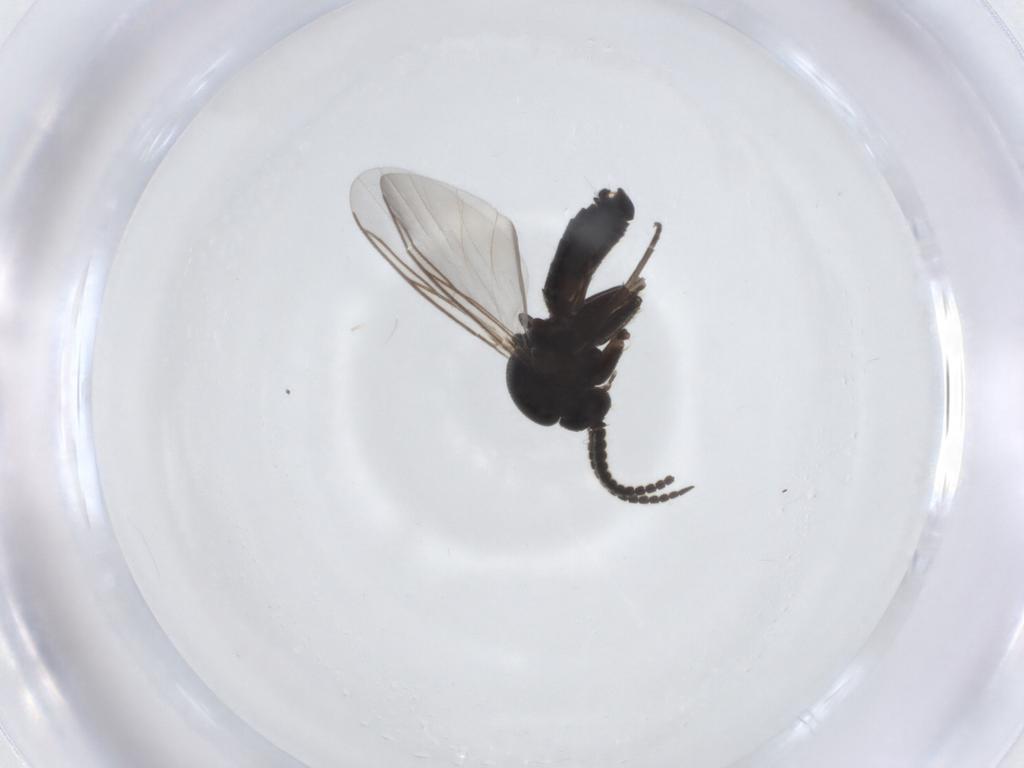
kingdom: Animalia
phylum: Arthropoda
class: Insecta
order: Diptera
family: Mycetophilidae
